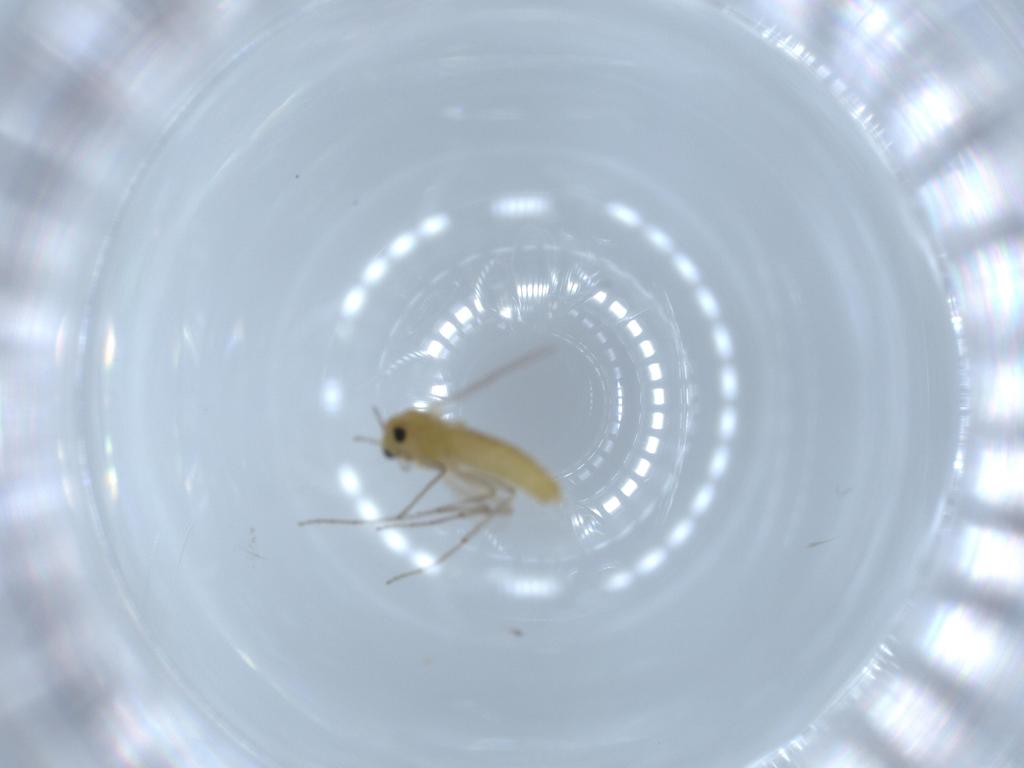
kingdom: Animalia
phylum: Arthropoda
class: Insecta
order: Diptera
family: Chironomidae
